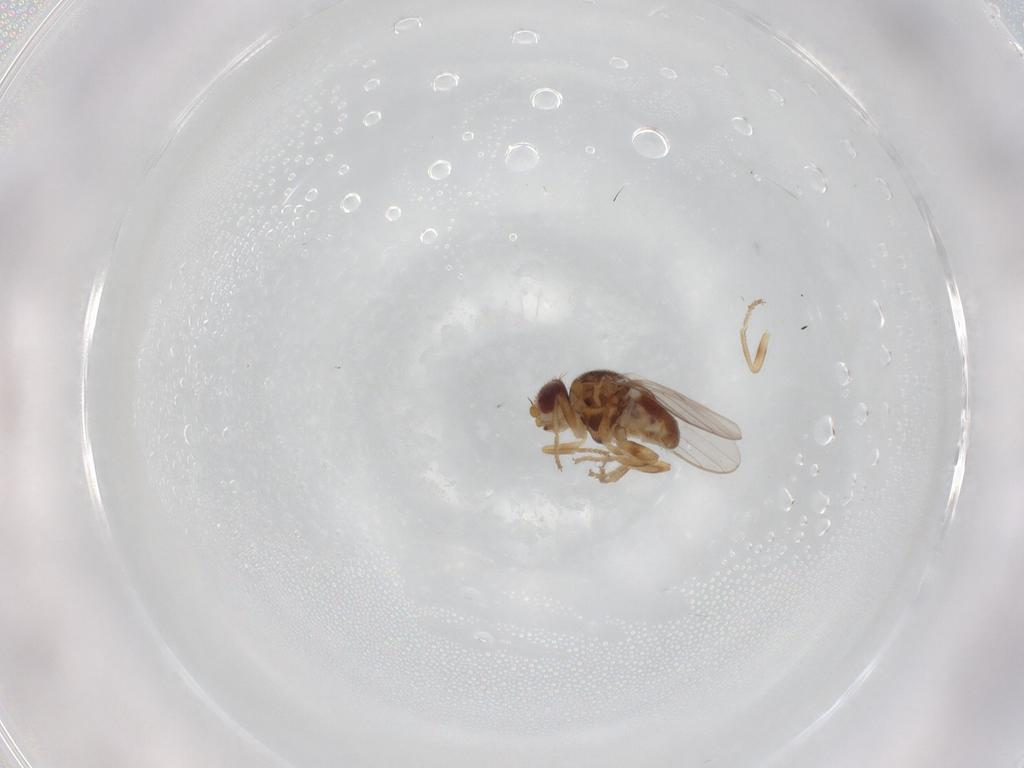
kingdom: Animalia
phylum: Arthropoda
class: Insecta
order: Diptera
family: Chloropidae
